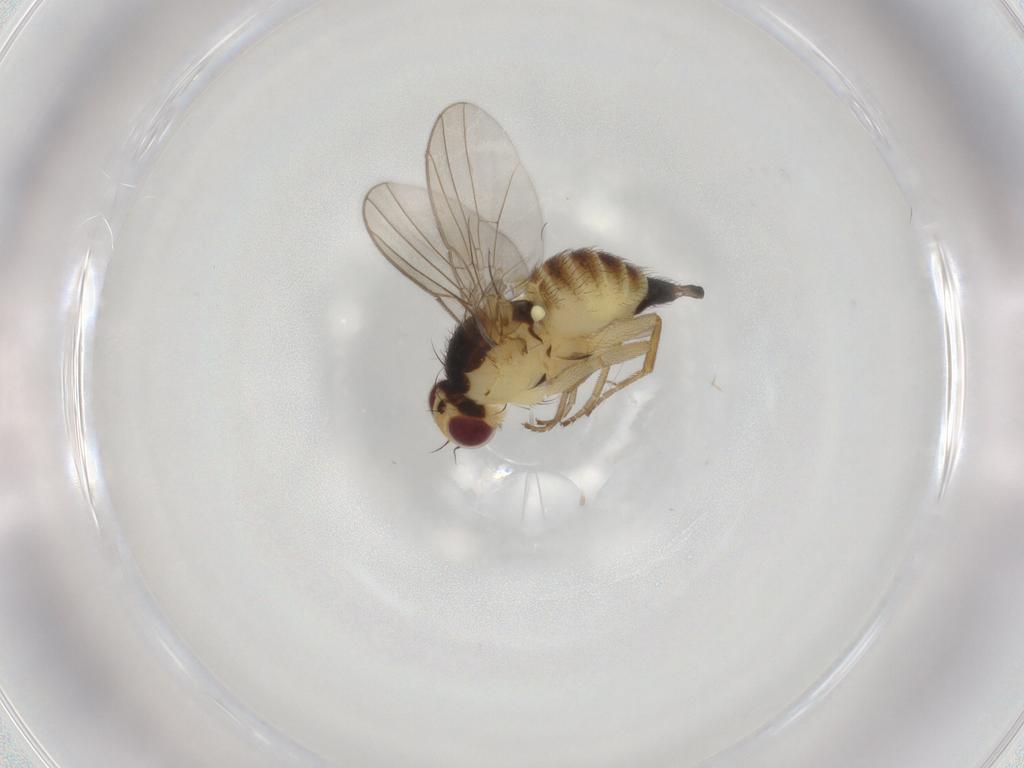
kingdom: Animalia
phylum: Arthropoda
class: Insecta
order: Diptera
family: Agromyzidae
